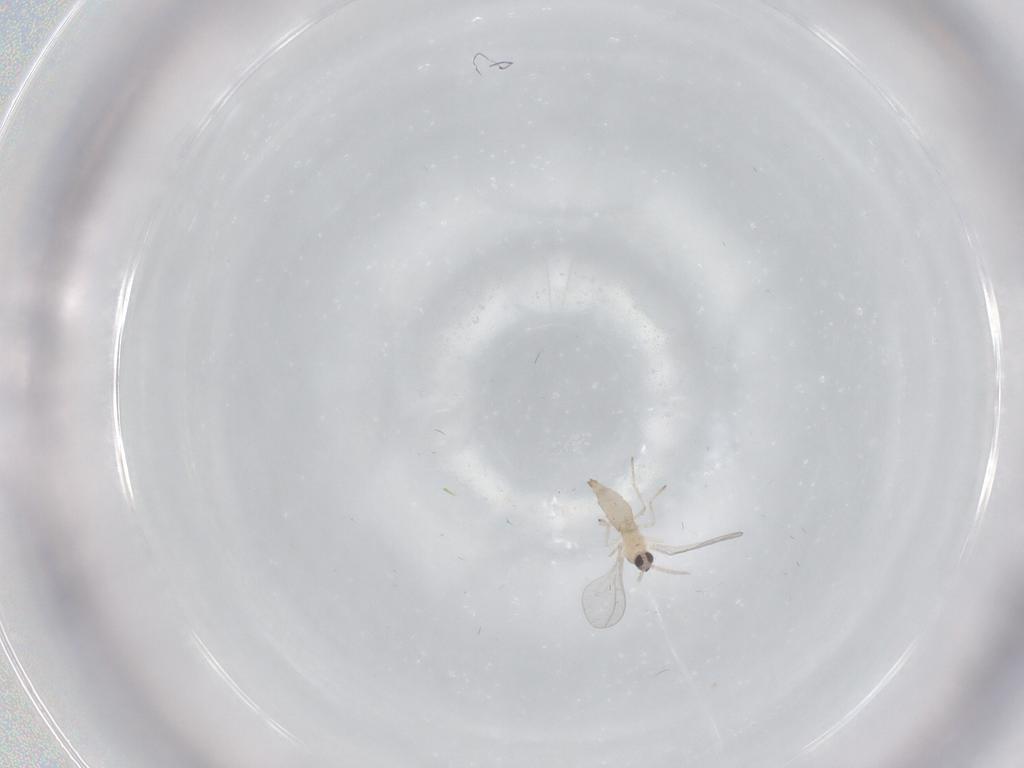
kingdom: Animalia
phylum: Arthropoda
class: Insecta
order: Diptera
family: Cecidomyiidae
